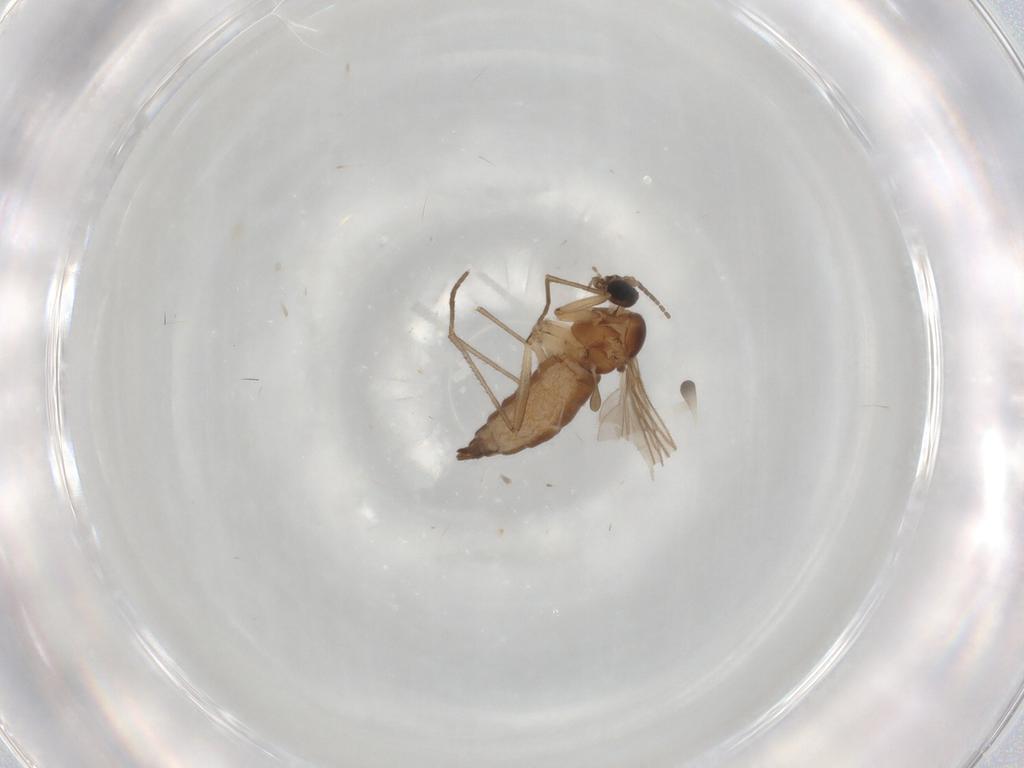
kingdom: Animalia
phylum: Arthropoda
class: Insecta
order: Diptera
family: Sciaridae
